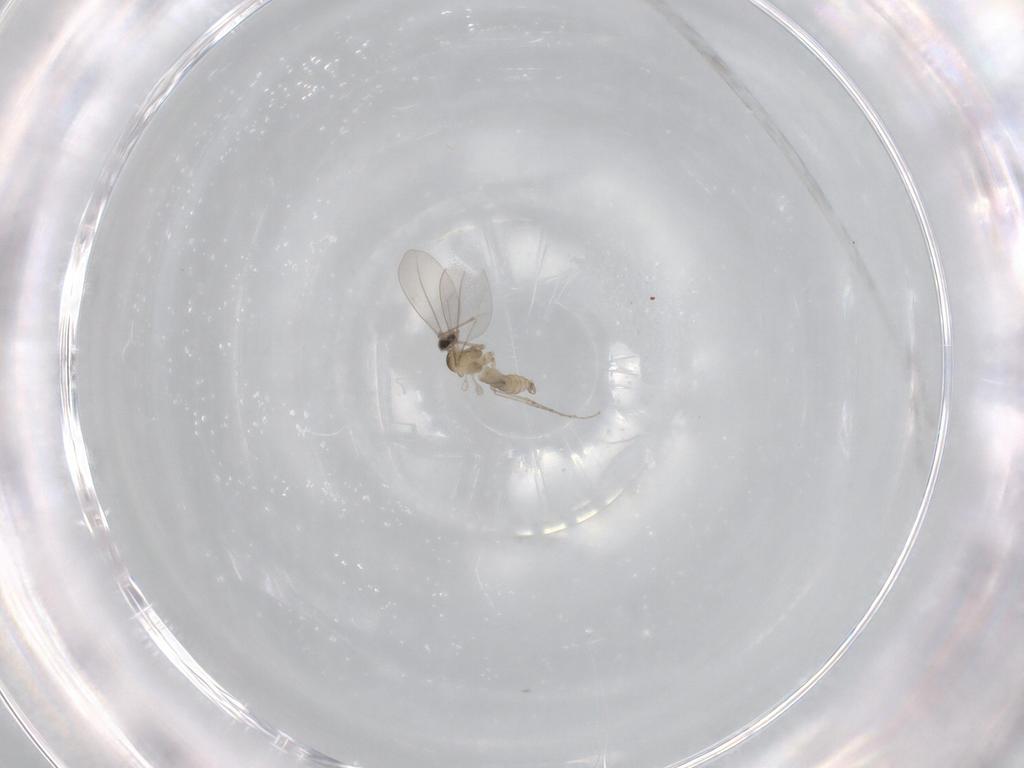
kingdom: Animalia
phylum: Arthropoda
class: Insecta
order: Diptera
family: Cecidomyiidae
